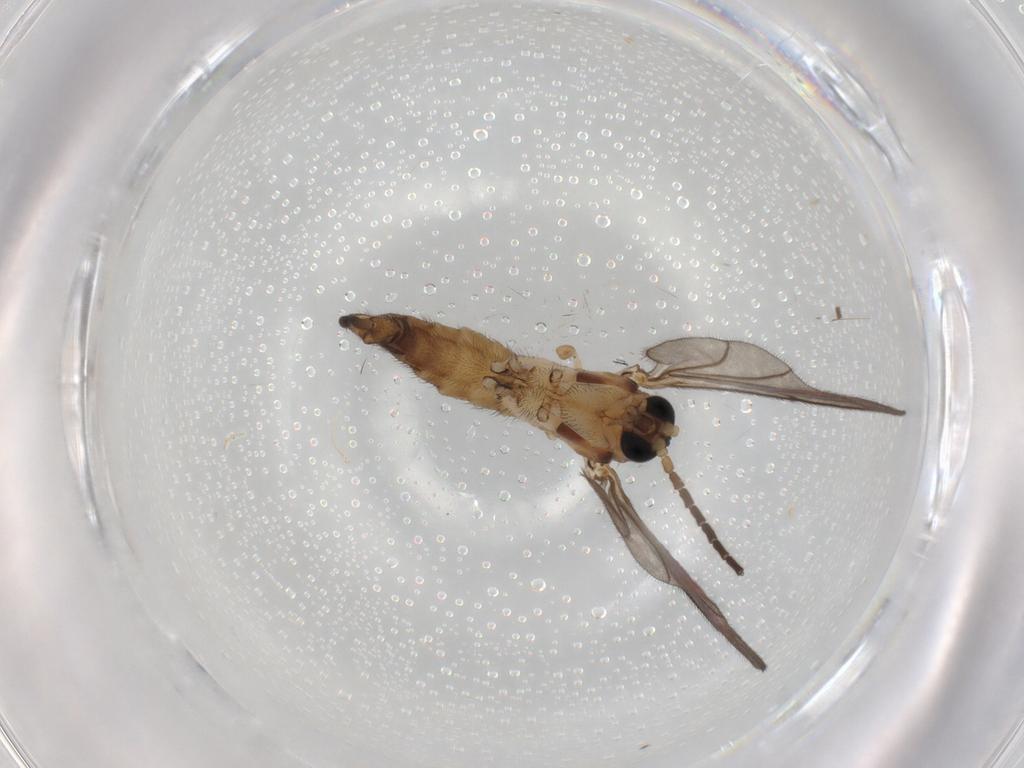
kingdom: Animalia
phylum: Arthropoda
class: Insecta
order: Diptera
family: Sciaridae
